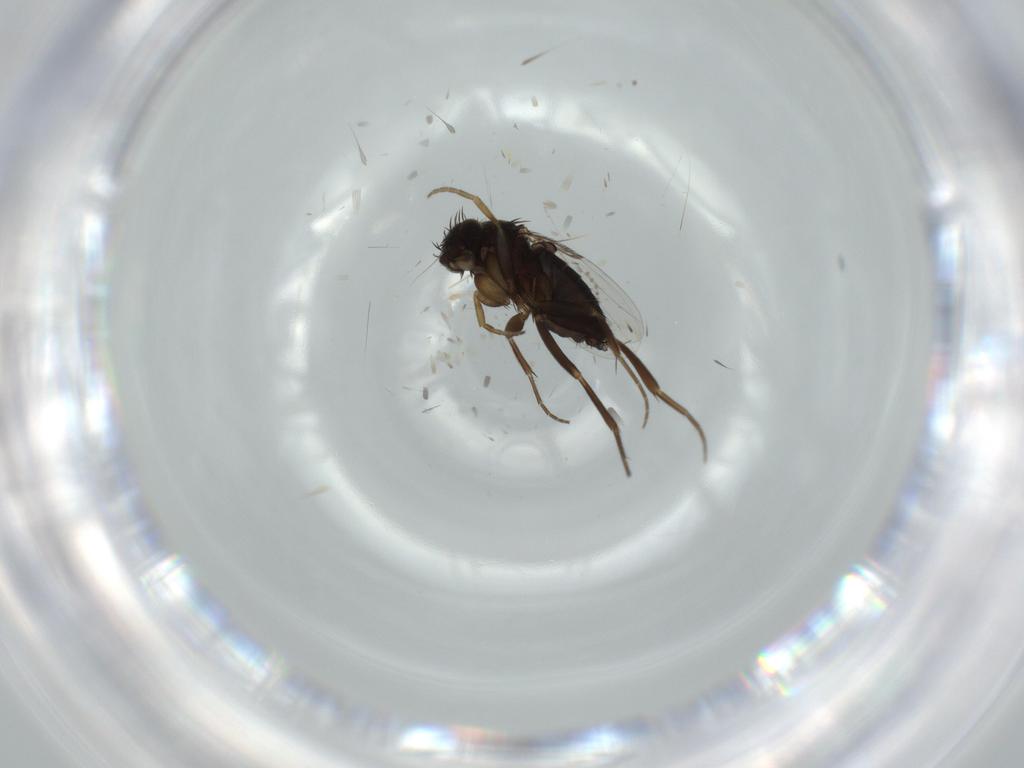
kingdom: Animalia
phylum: Arthropoda
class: Insecta
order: Diptera
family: Phoridae
